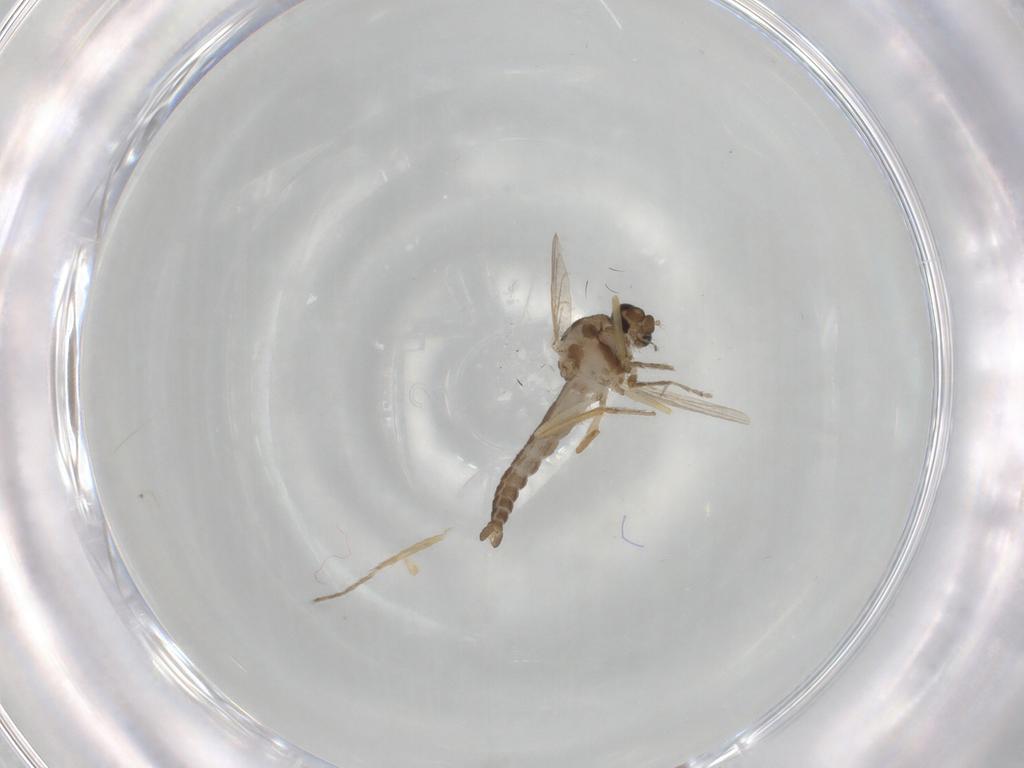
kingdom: Animalia
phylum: Arthropoda
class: Insecta
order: Diptera
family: Ceratopogonidae
